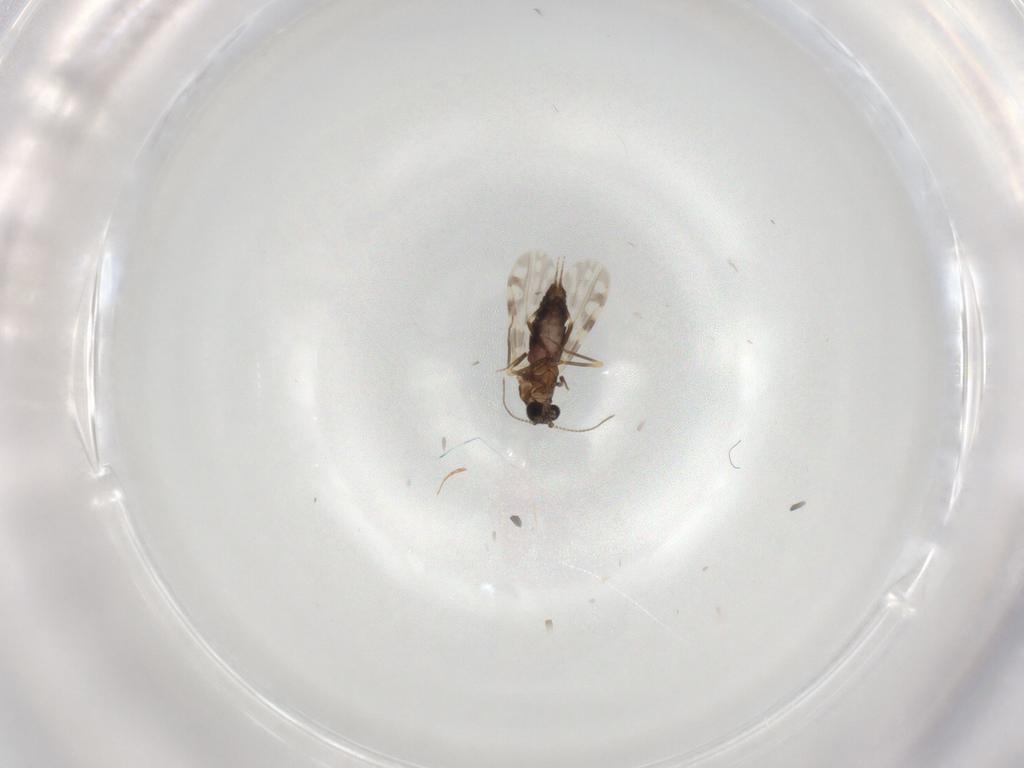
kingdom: Animalia
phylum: Arthropoda
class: Insecta
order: Diptera
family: Ceratopogonidae
